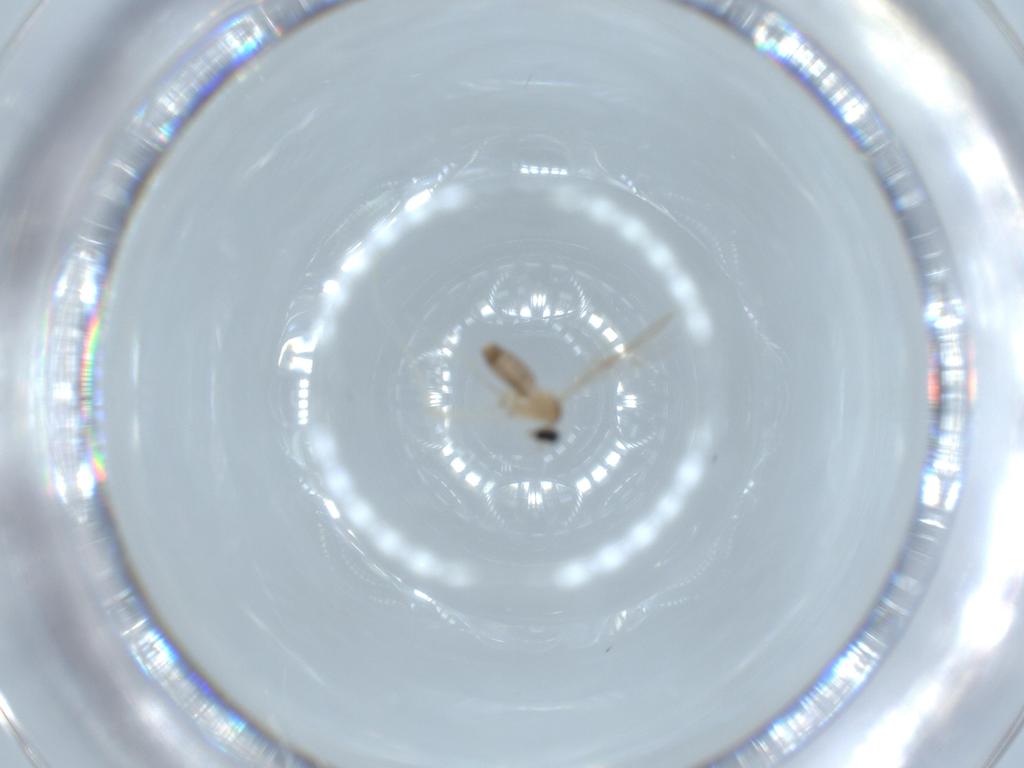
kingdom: Animalia
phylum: Arthropoda
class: Insecta
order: Diptera
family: Cecidomyiidae
